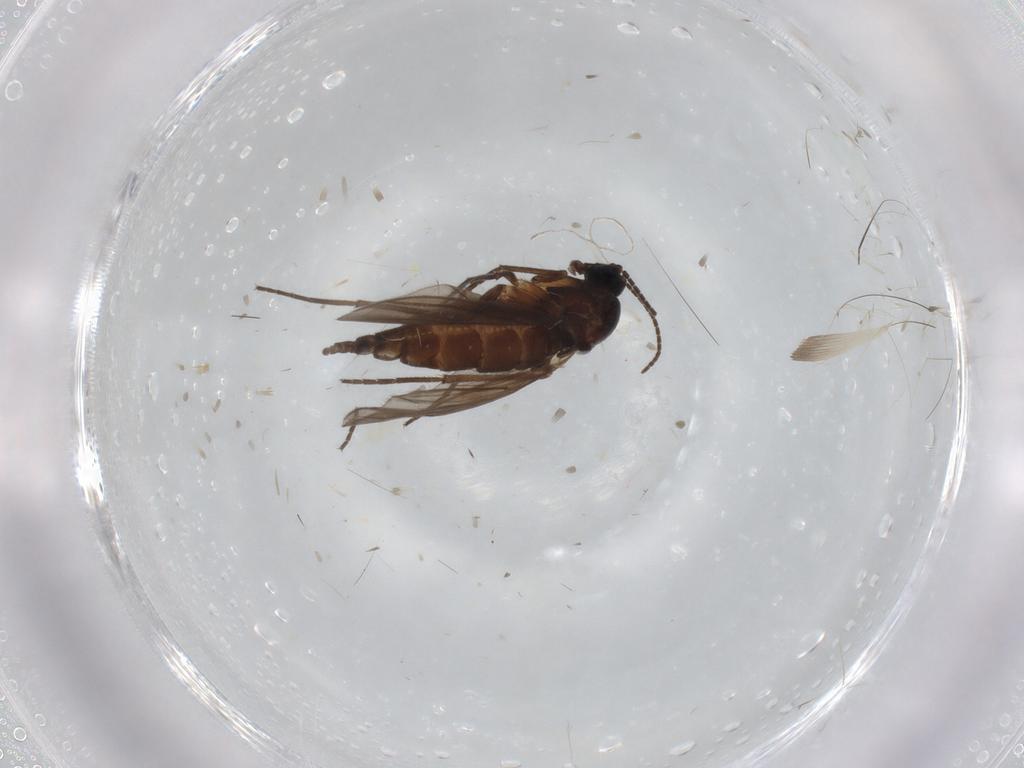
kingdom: Animalia
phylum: Arthropoda
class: Insecta
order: Diptera
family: Sciaridae
